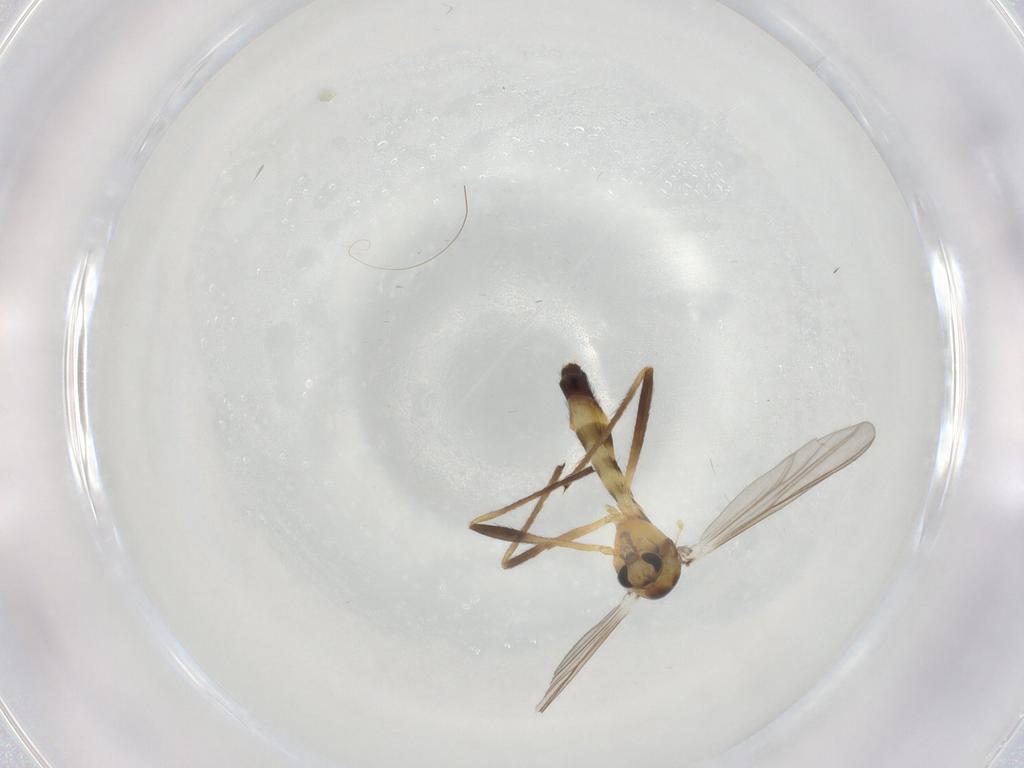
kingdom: Animalia
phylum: Arthropoda
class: Insecta
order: Diptera
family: Chironomidae
